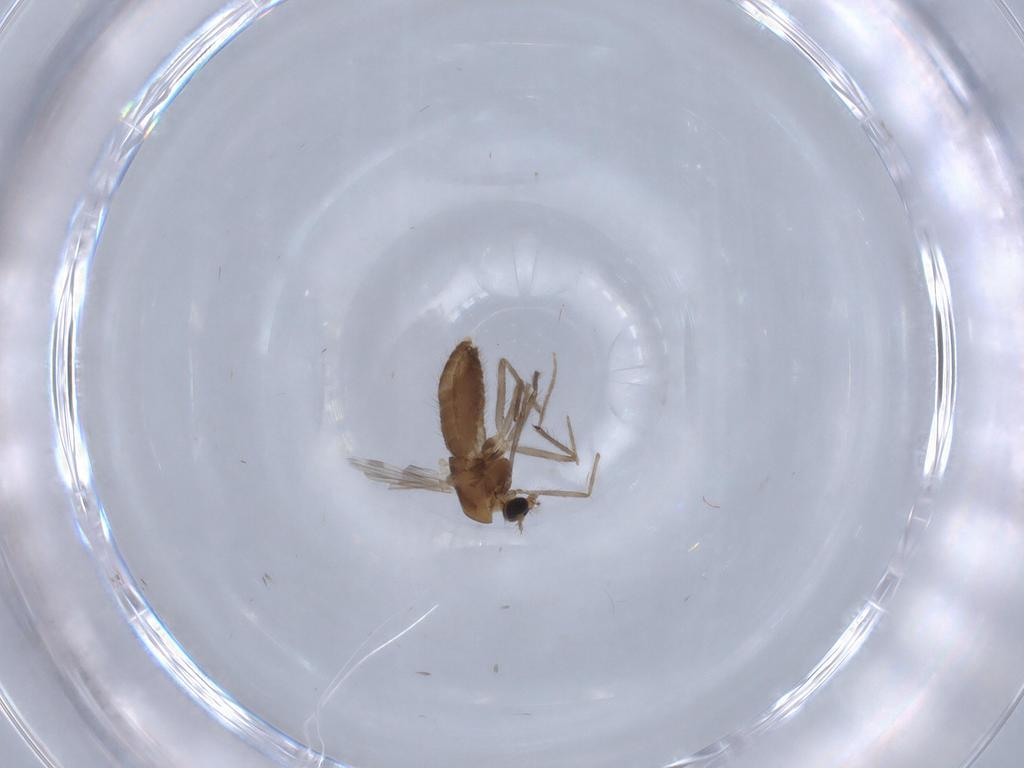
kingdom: Animalia
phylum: Arthropoda
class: Insecta
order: Diptera
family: Chironomidae
